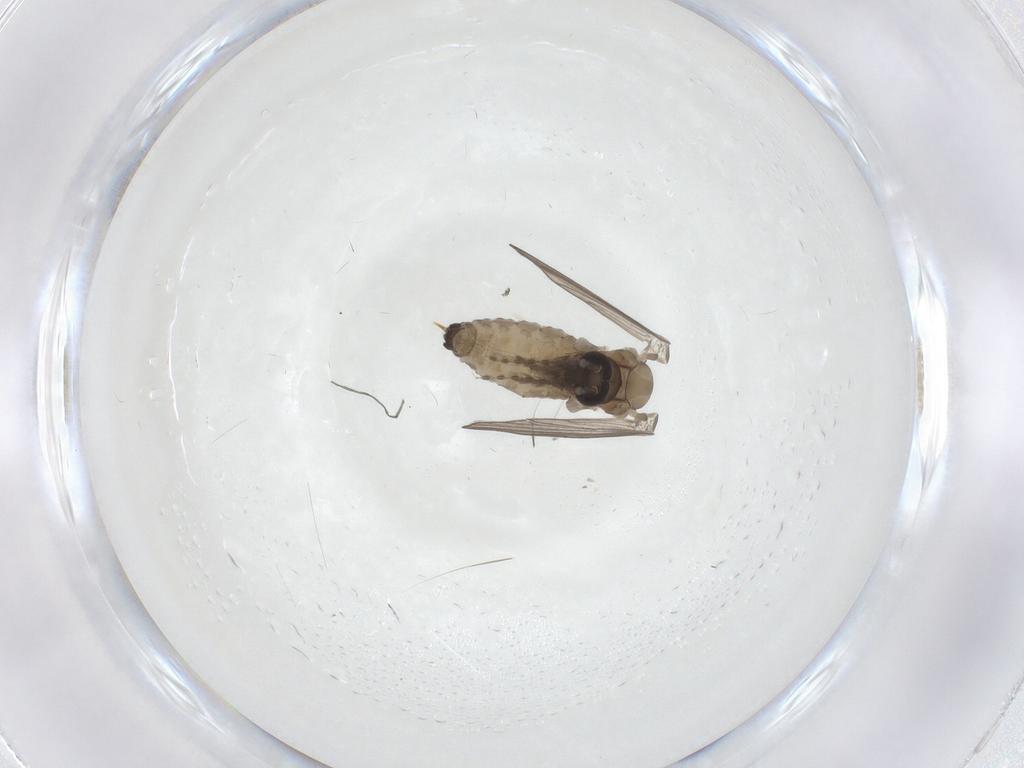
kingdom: Animalia
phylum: Arthropoda
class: Insecta
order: Diptera
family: Psychodidae
